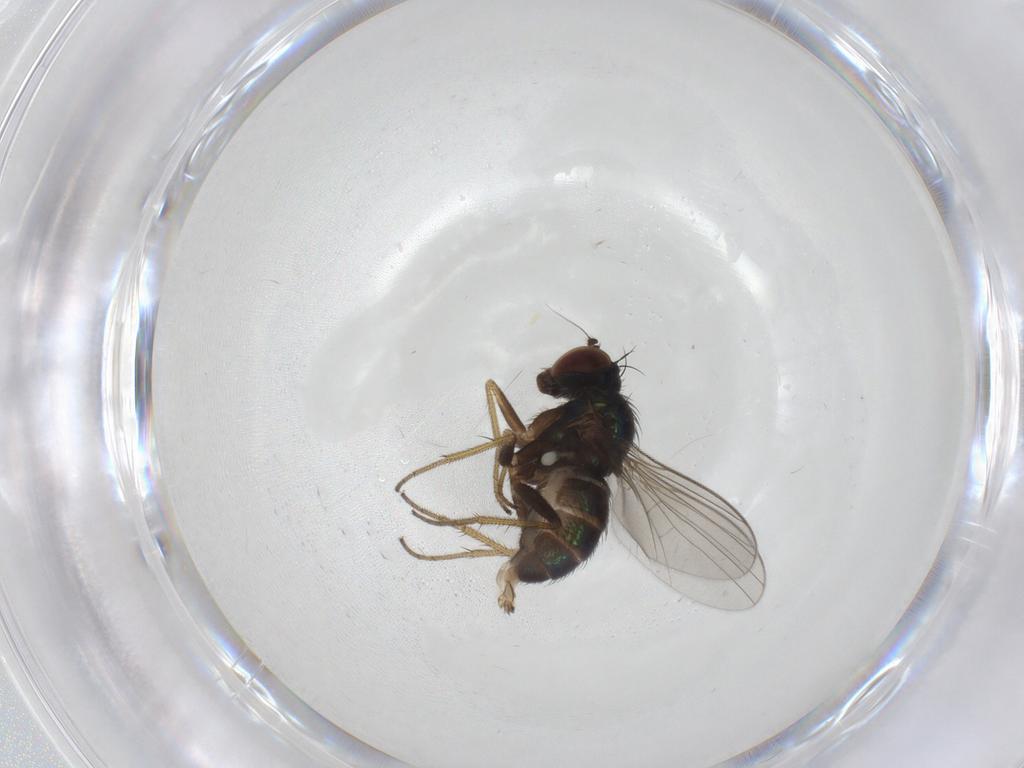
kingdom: Animalia
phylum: Arthropoda
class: Insecta
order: Diptera
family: Dolichopodidae
